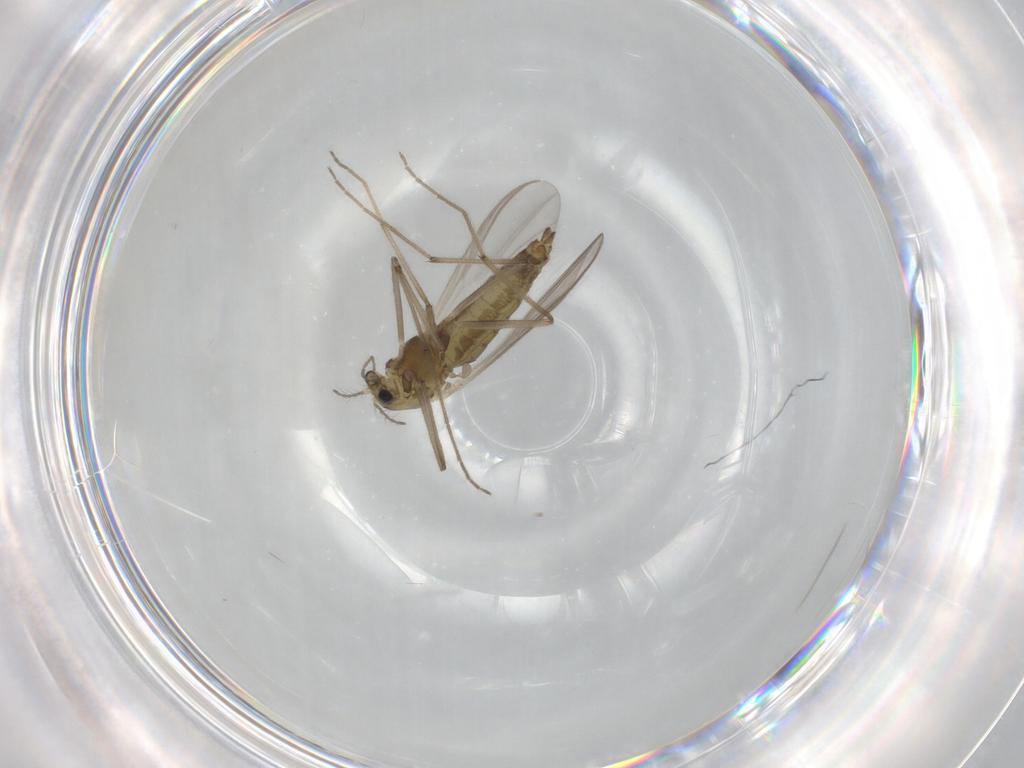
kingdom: Animalia
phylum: Arthropoda
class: Insecta
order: Diptera
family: Chironomidae
